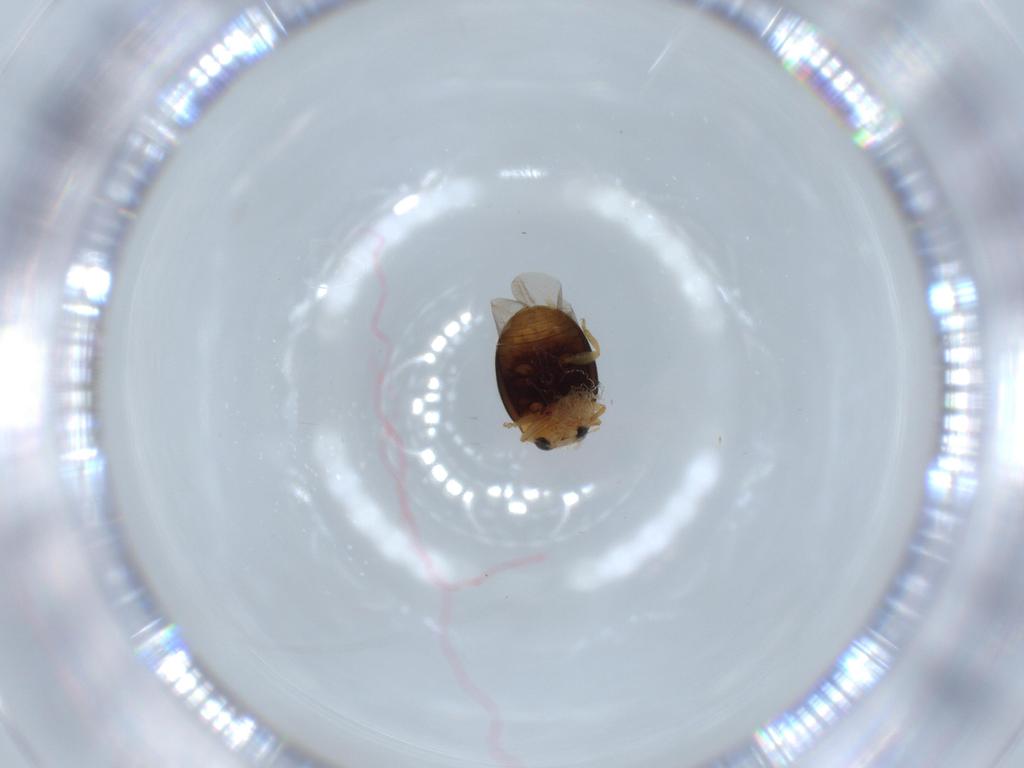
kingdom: Animalia
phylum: Arthropoda
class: Insecta
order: Coleoptera
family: Coccinellidae
